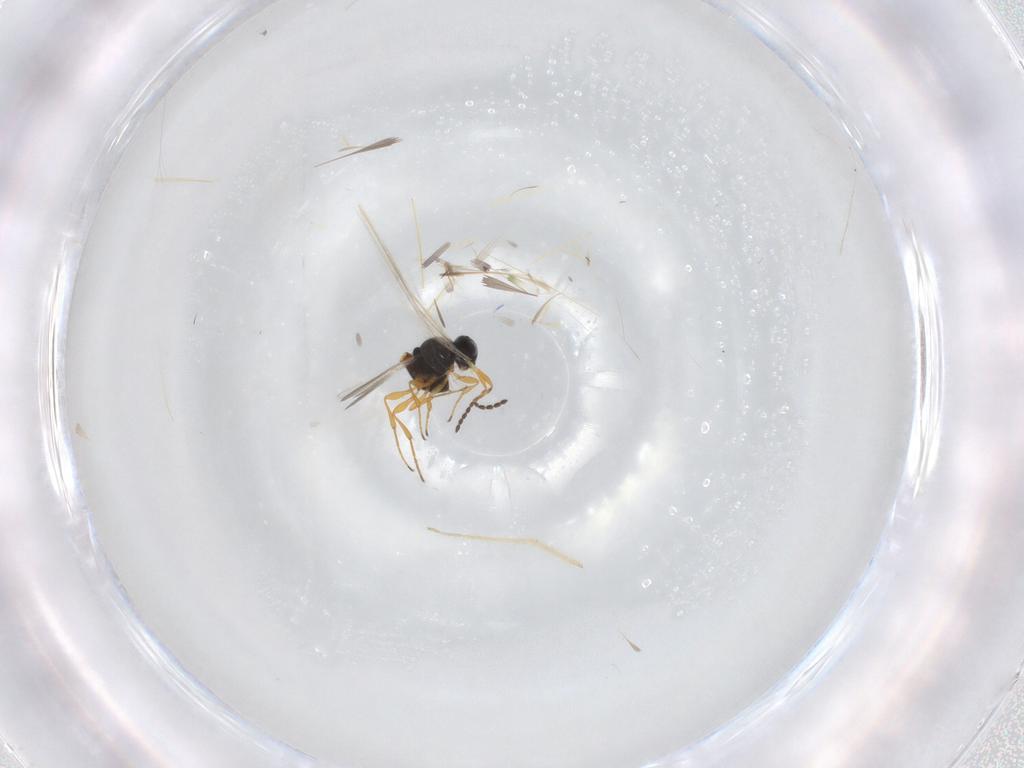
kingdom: Animalia
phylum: Arthropoda
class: Insecta
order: Hymenoptera
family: Platygastridae
